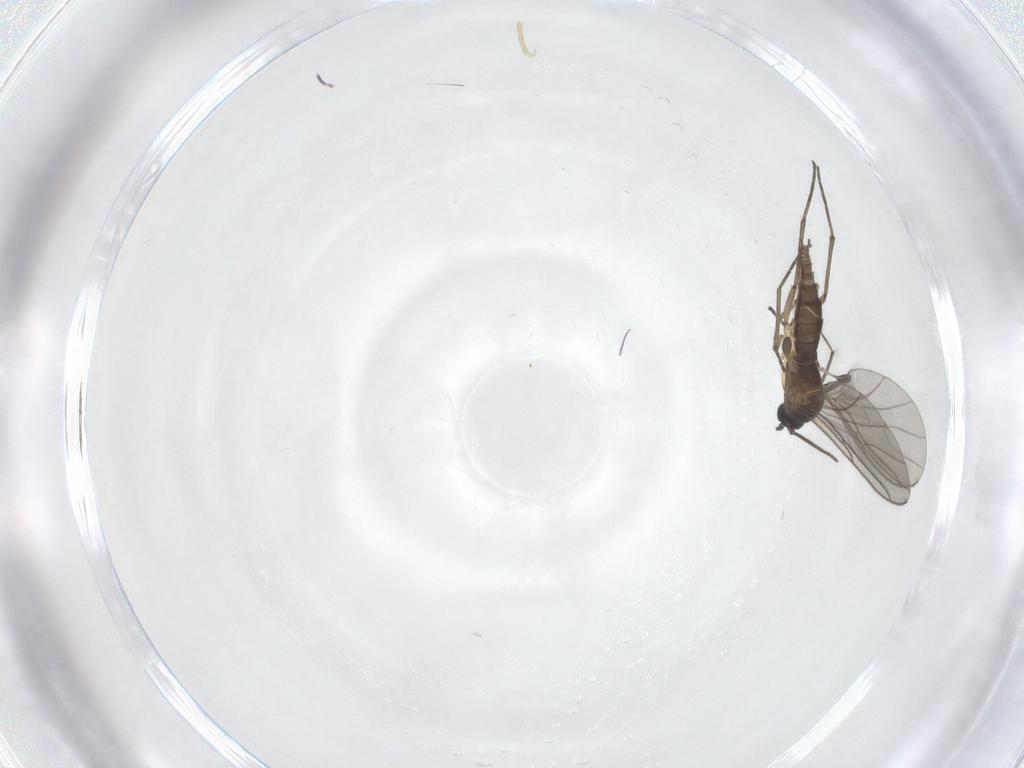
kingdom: Animalia
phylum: Arthropoda
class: Insecta
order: Diptera
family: Sciaridae
